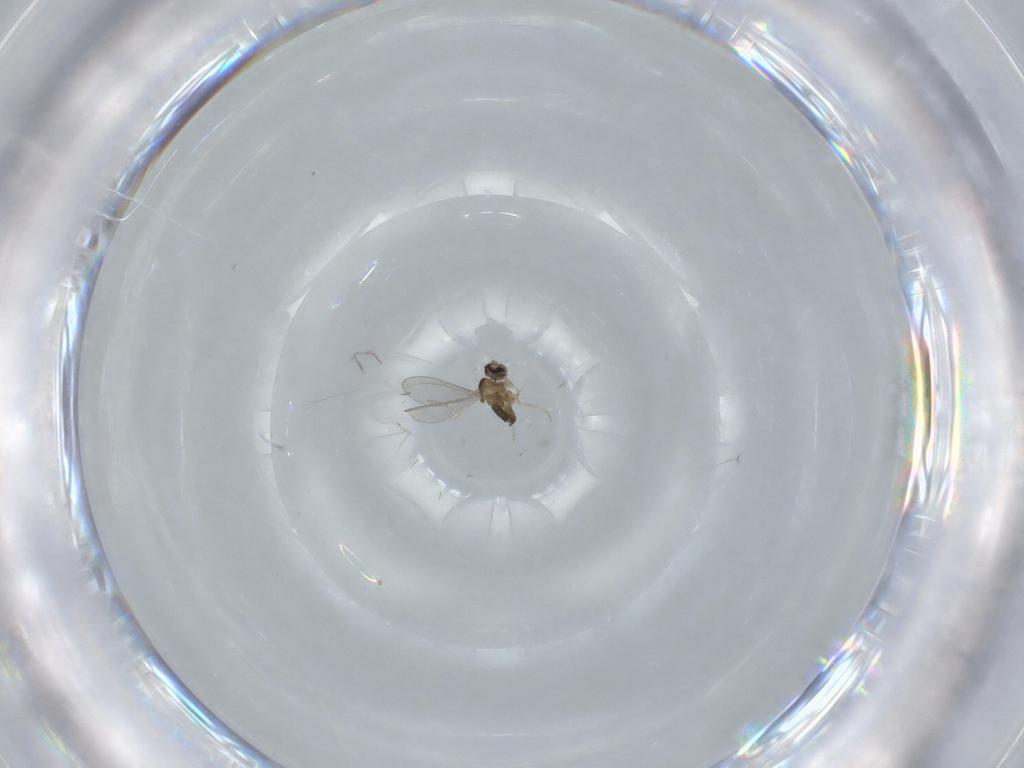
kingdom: Animalia
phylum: Arthropoda
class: Insecta
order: Diptera
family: Cecidomyiidae
